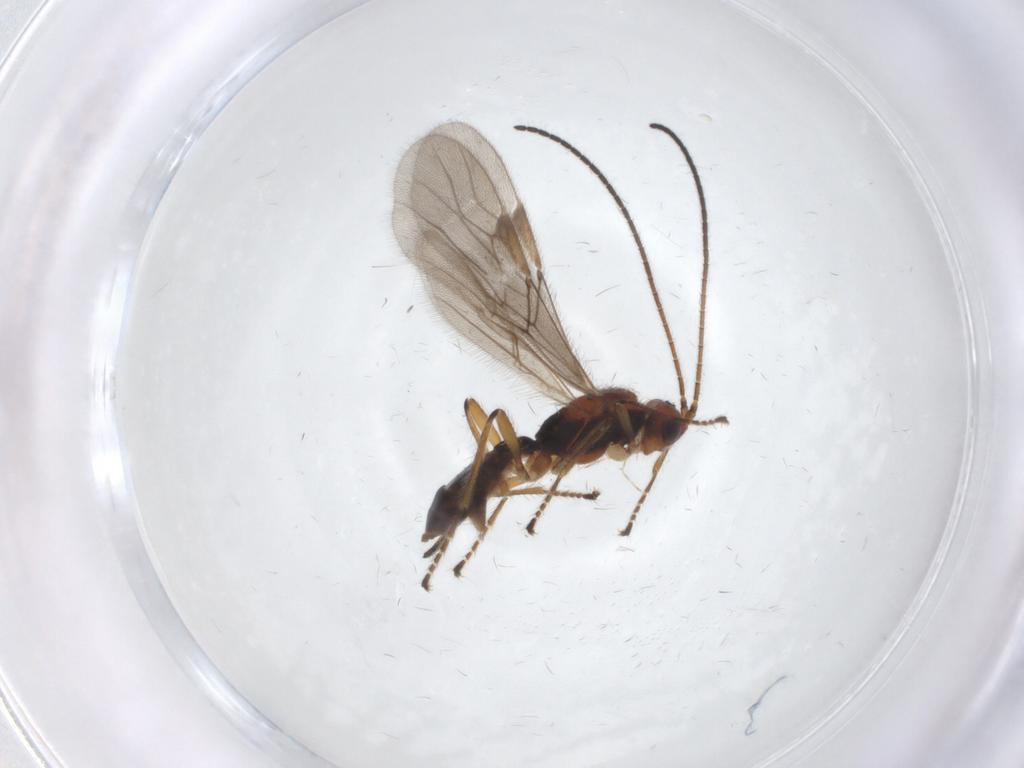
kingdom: Animalia
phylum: Arthropoda
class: Insecta
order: Hymenoptera
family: Braconidae
